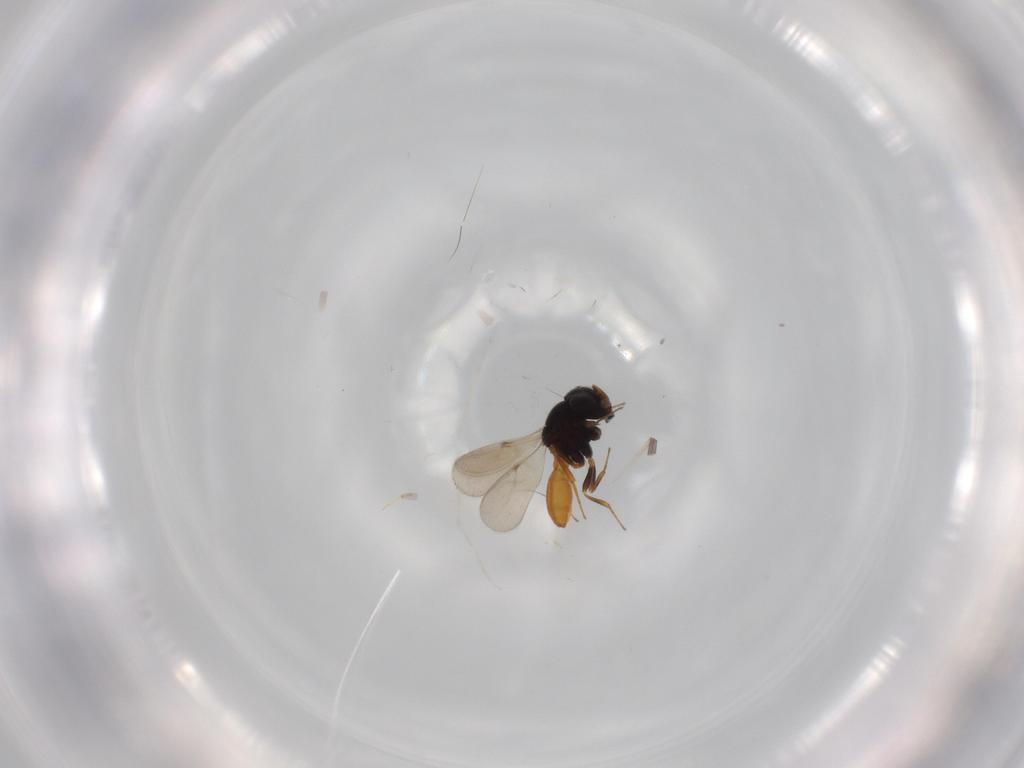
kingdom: Animalia
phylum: Arthropoda
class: Insecta
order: Hymenoptera
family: Scelionidae
